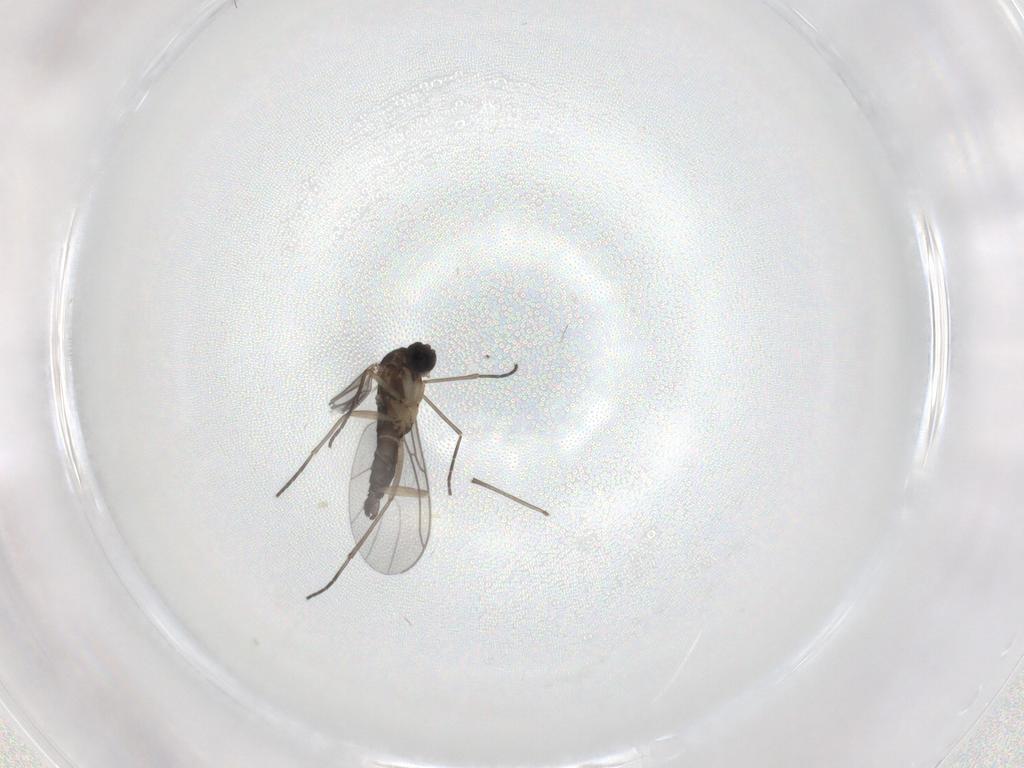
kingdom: Animalia
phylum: Arthropoda
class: Insecta
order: Diptera
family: Sciaridae
